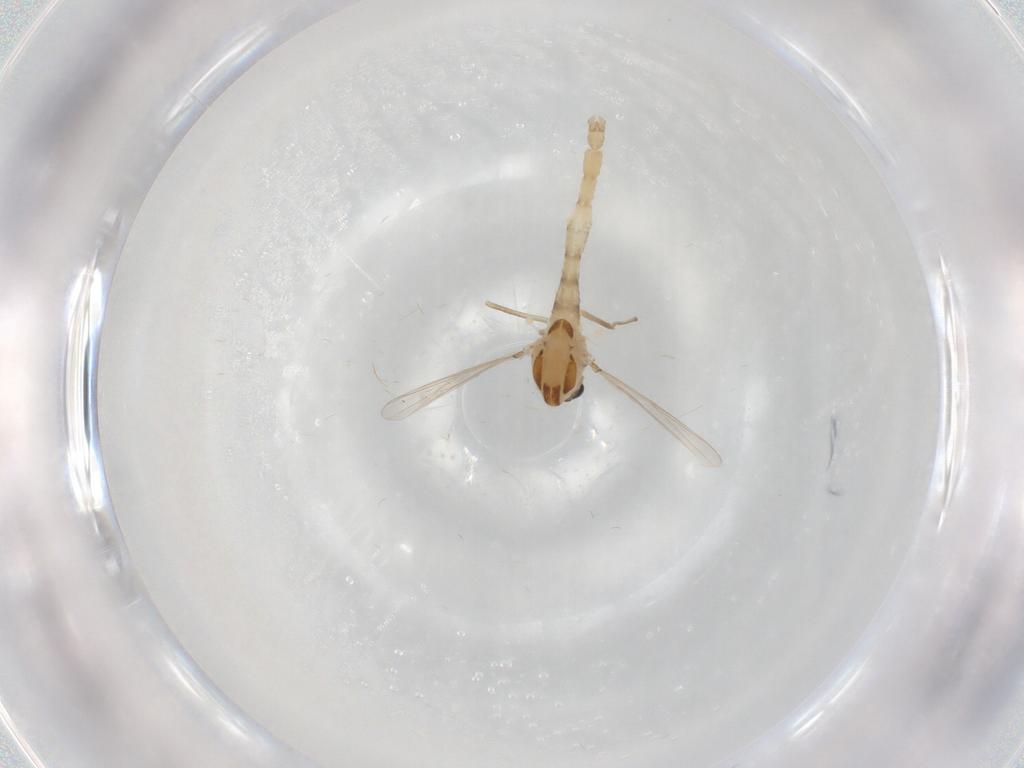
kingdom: Animalia
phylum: Arthropoda
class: Insecta
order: Diptera
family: Chironomidae
